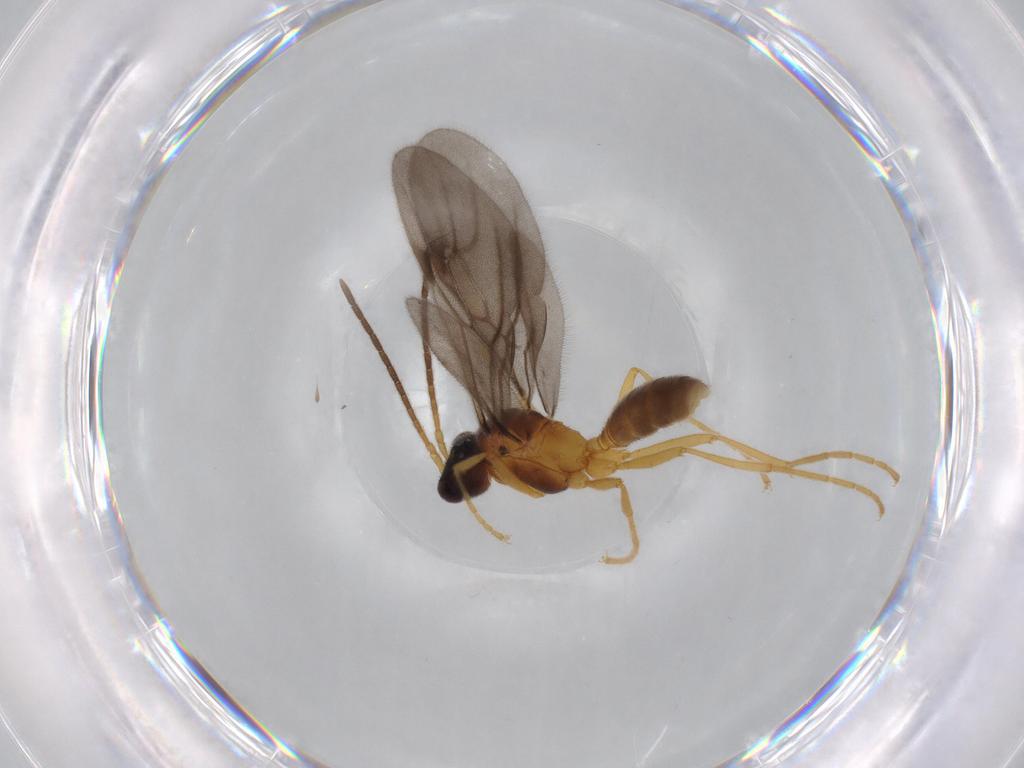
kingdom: Animalia
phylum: Arthropoda
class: Insecta
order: Hymenoptera
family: Formicidae
